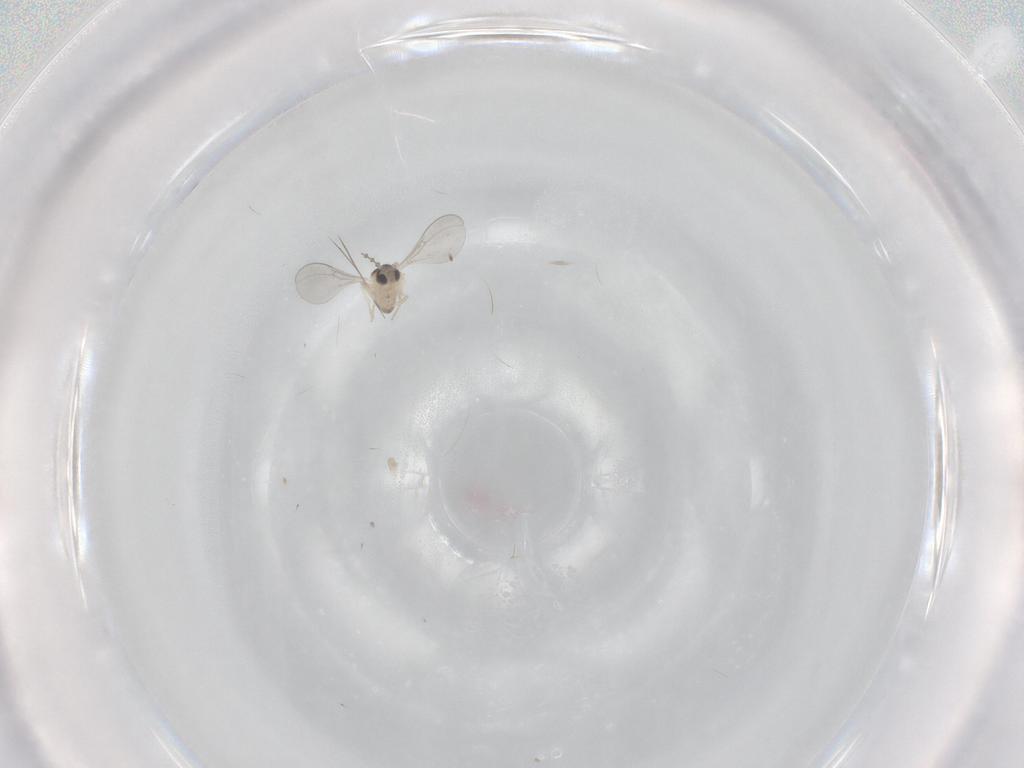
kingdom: Animalia
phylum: Arthropoda
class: Insecta
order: Diptera
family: Cecidomyiidae
